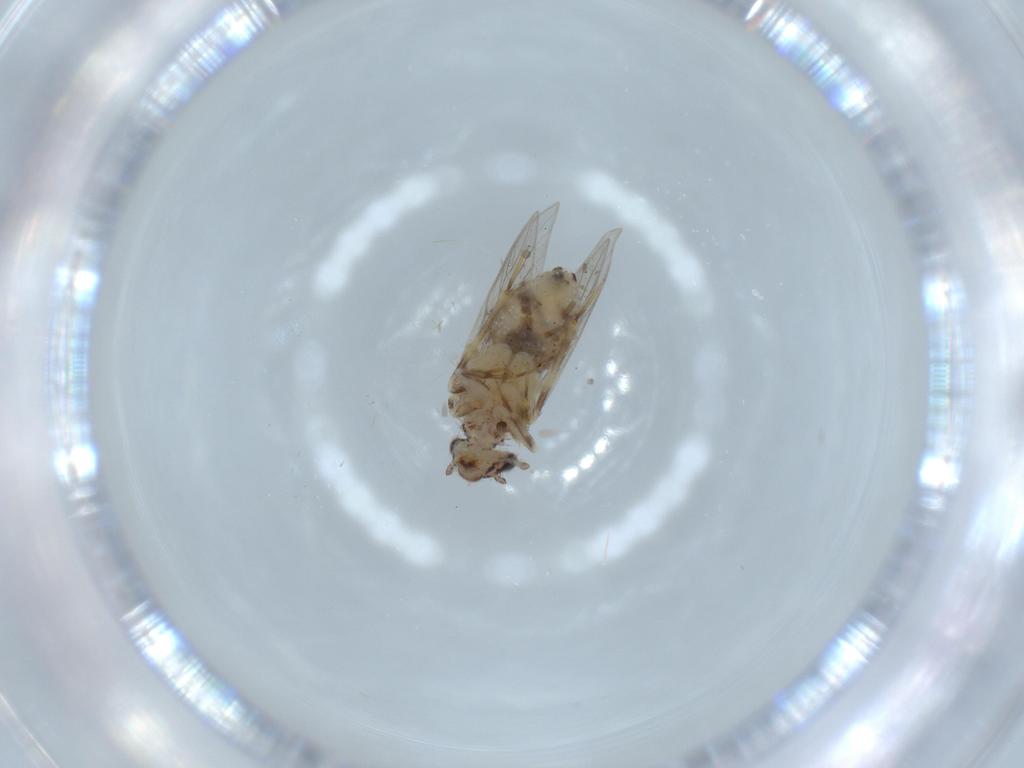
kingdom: Animalia
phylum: Arthropoda
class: Insecta
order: Psocodea
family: Lepidopsocidae
